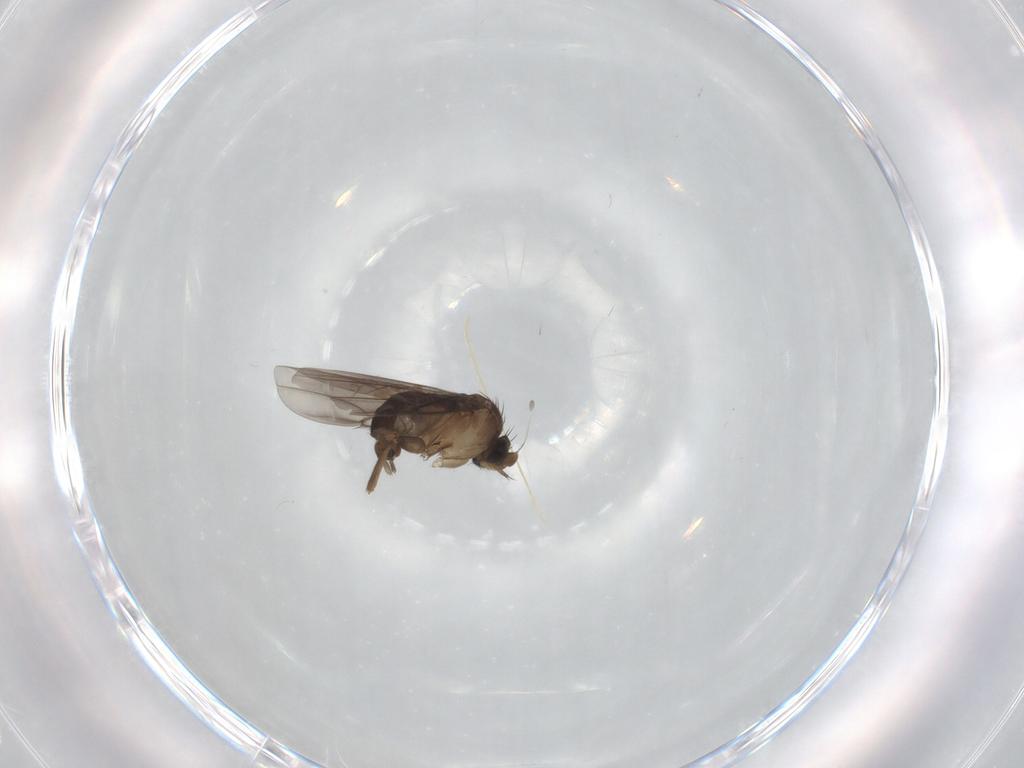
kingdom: Animalia
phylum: Arthropoda
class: Insecta
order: Diptera
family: Phoridae
